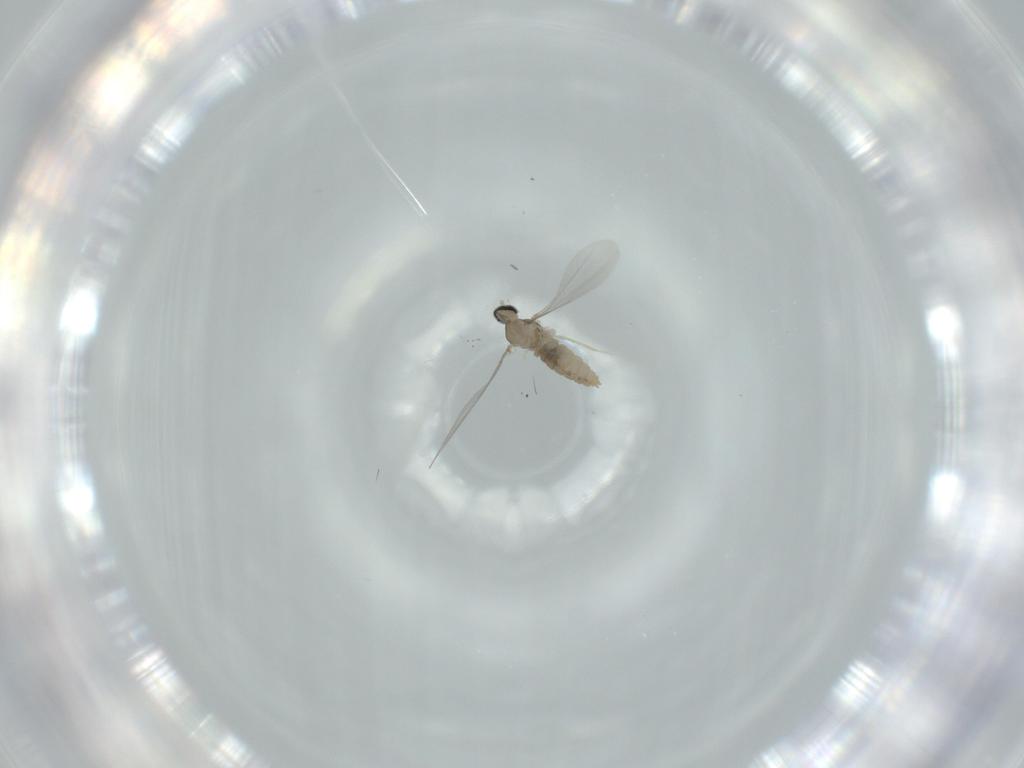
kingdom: Animalia
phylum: Arthropoda
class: Insecta
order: Diptera
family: Cecidomyiidae
